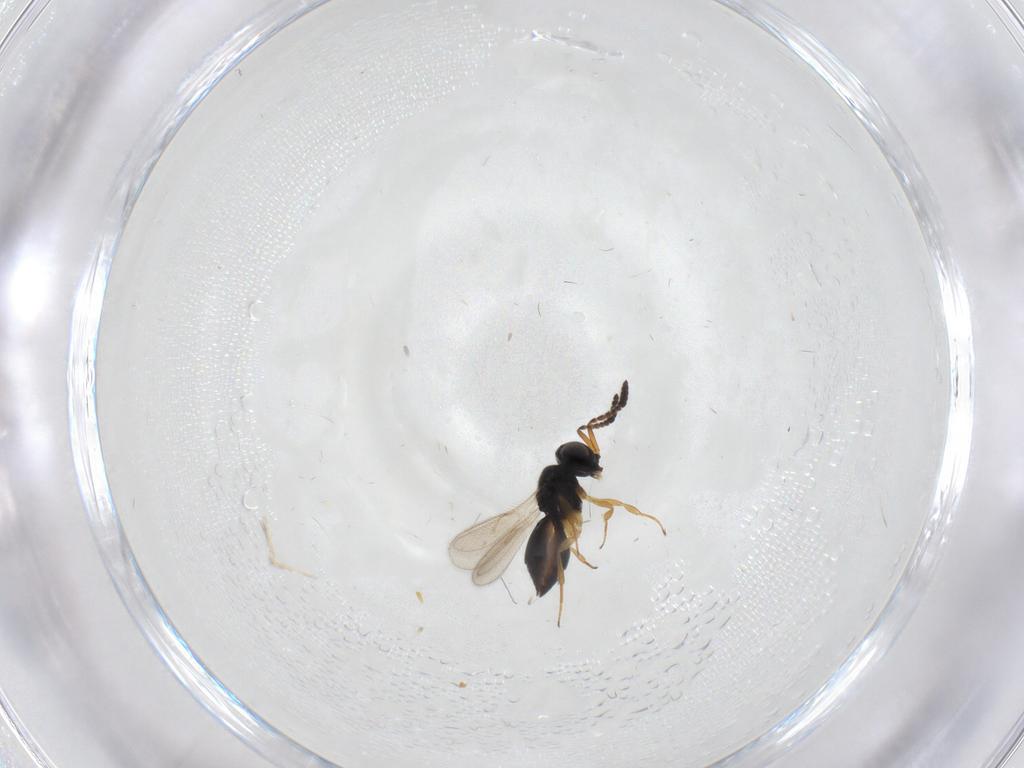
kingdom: Animalia
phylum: Arthropoda
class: Insecta
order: Hymenoptera
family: Scelionidae
